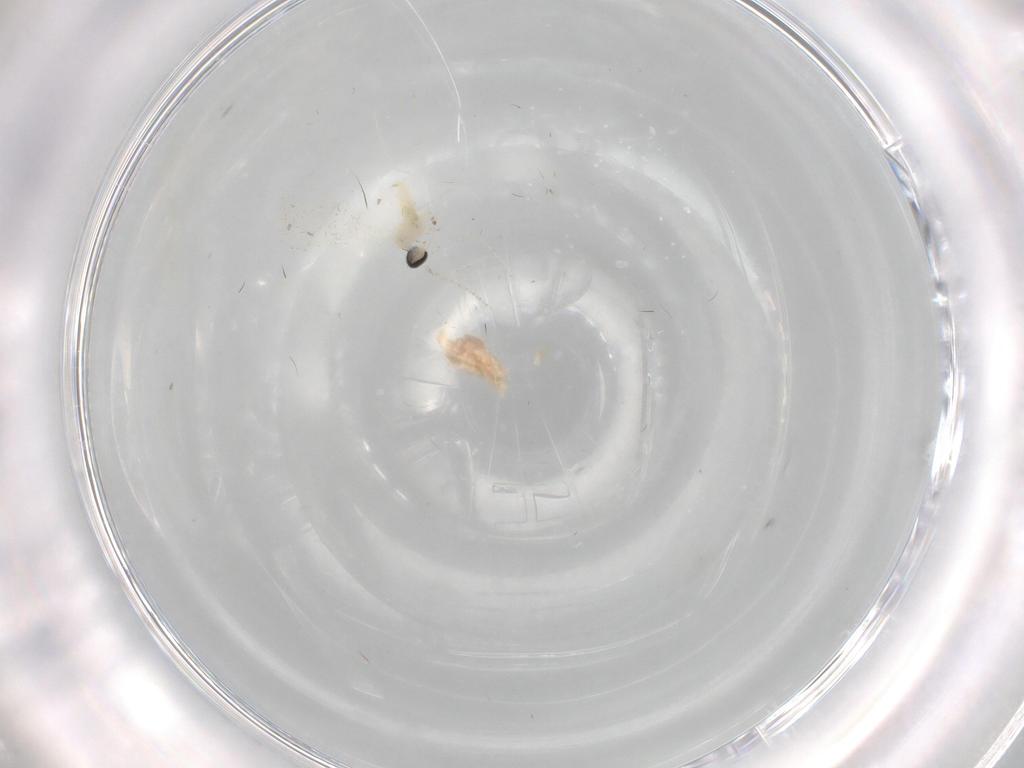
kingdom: Animalia
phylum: Arthropoda
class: Insecta
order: Diptera
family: Cecidomyiidae
